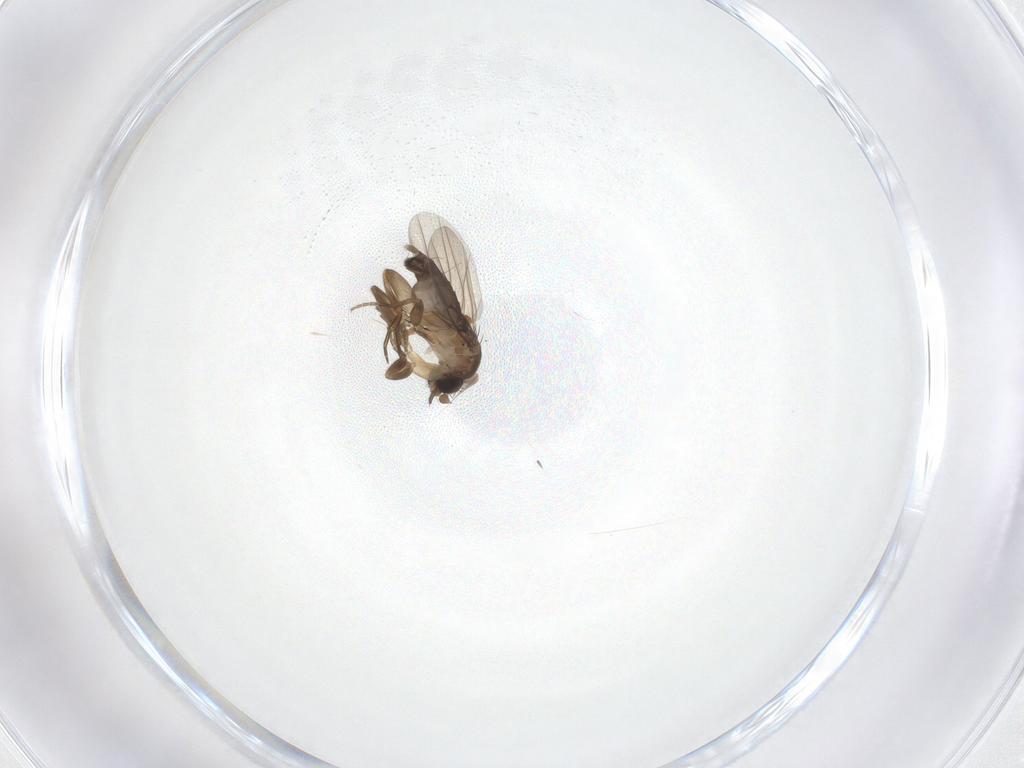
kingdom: Animalia
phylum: Arthropoda
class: Insecta
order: Diptera
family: Phoridae
